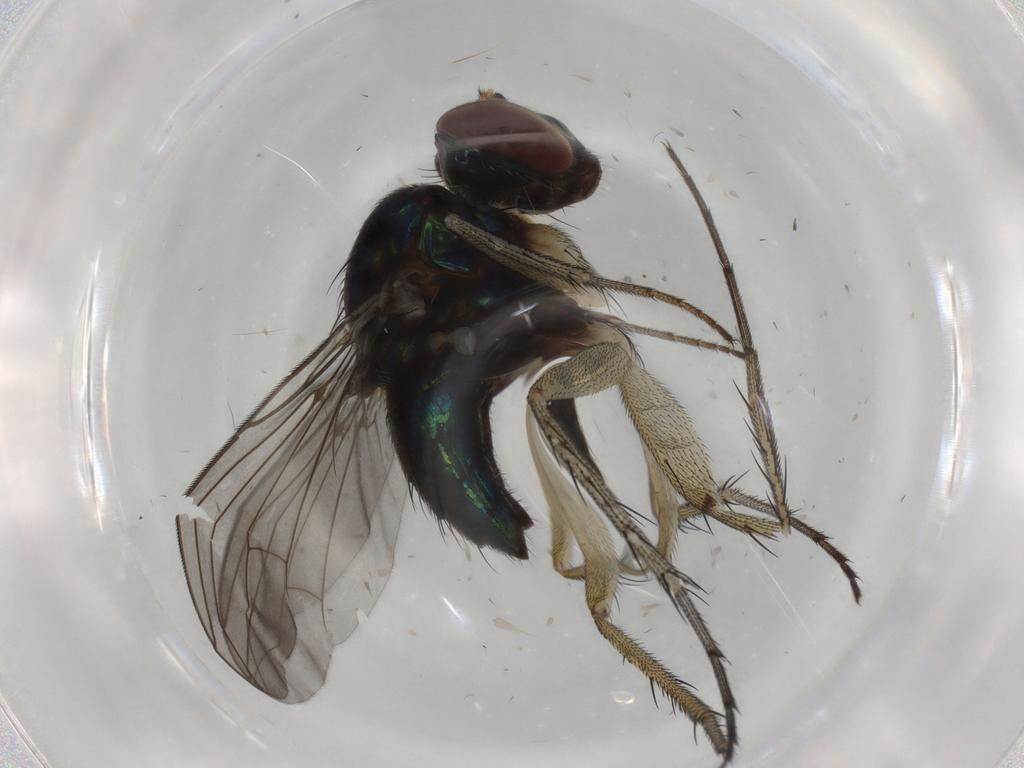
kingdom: Animalia
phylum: Arthropoda
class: Insecta
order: Diptera
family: Dolichopodidae
